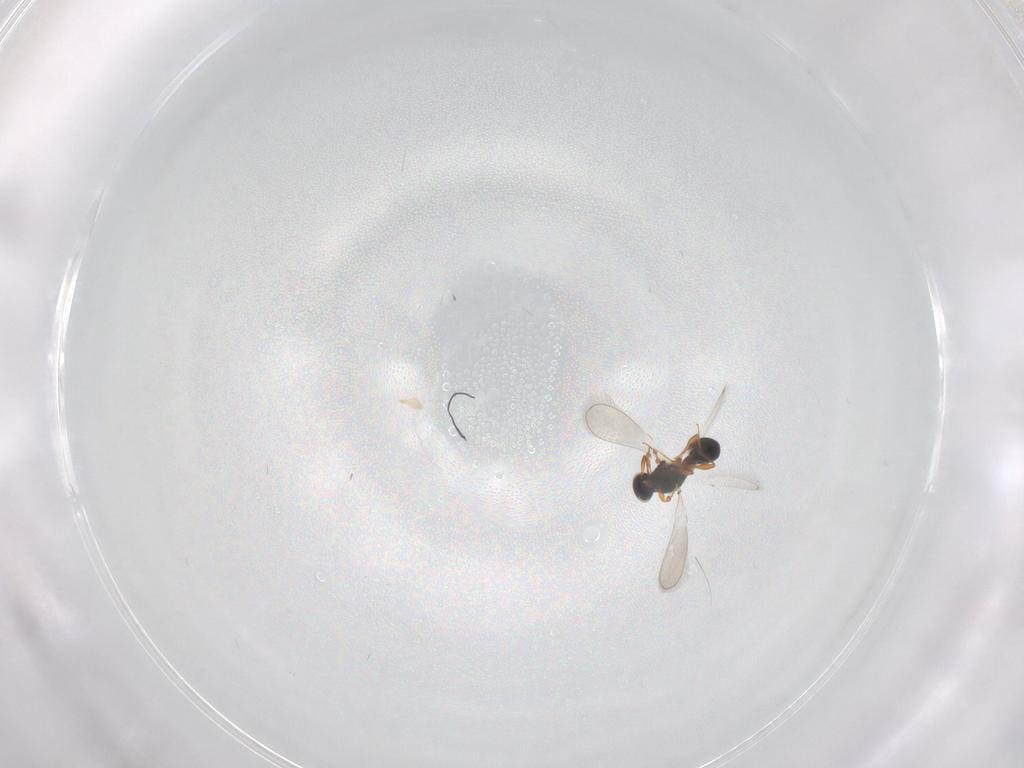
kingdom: Animalia
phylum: Arthropoda
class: Insecta
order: Hymenoptera
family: Platygastridae
